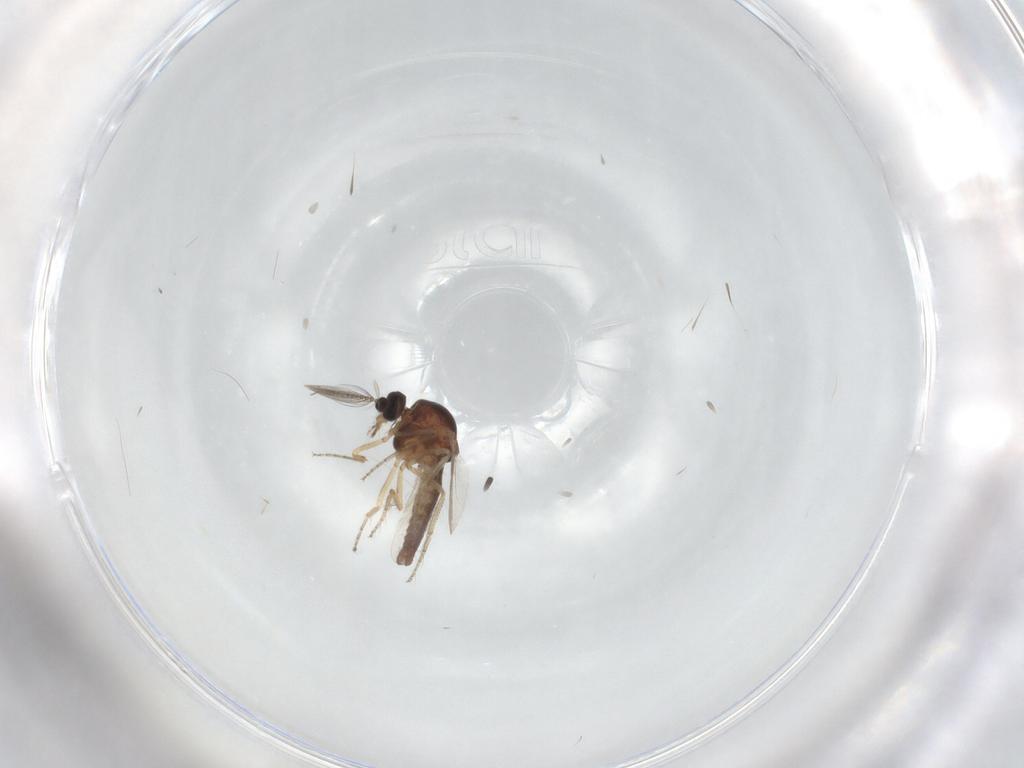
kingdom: Animalia
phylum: Arthropoda
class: Insecta
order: Diptera
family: Ceratopogonidae
